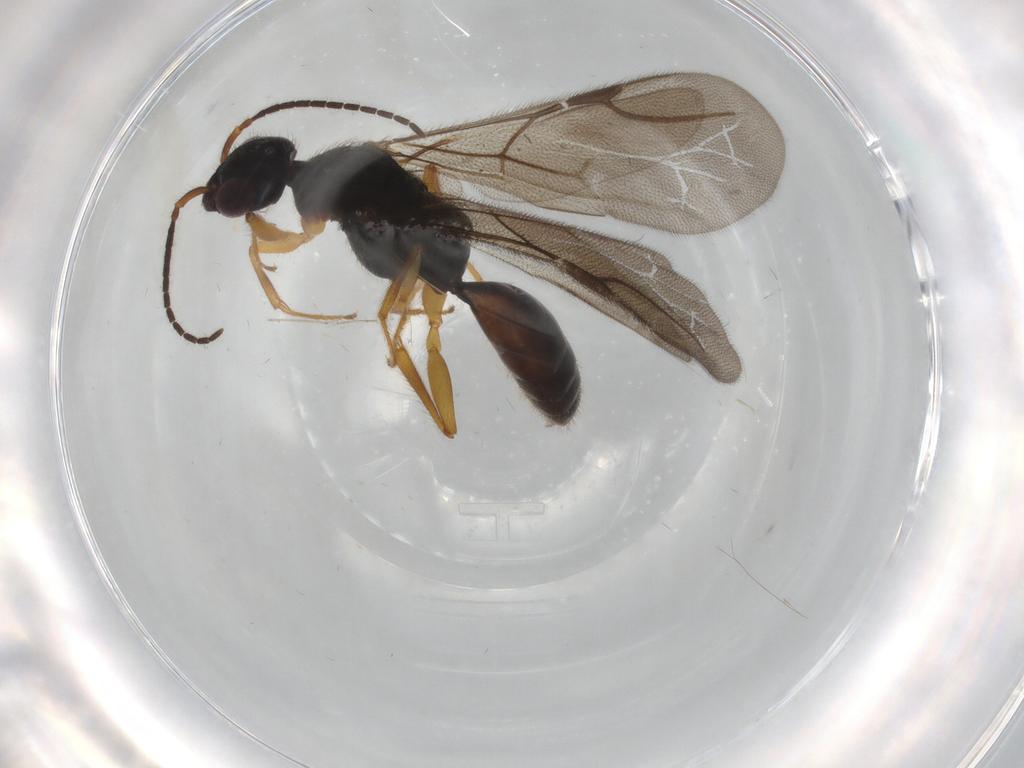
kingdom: Animalia
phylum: Arthropoda
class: Insecta
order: Hymenoptera
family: Bethylidae
